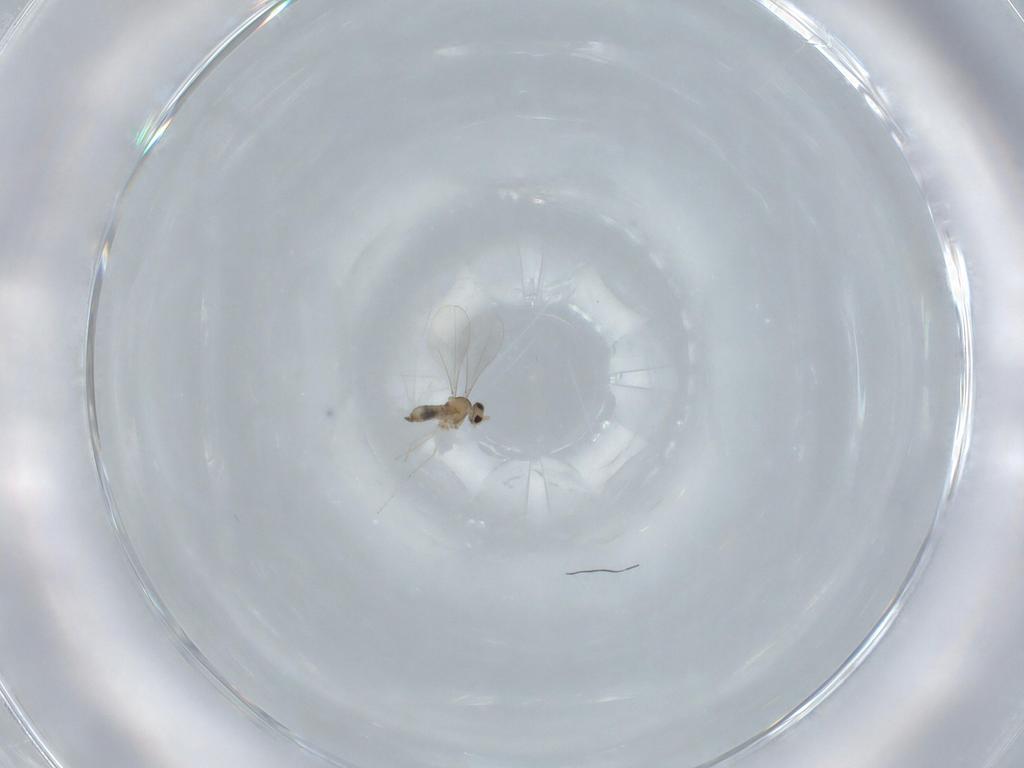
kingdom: Animalia
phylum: Arthropoda
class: Insecta
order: Diptera
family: Cecidomyiidae
